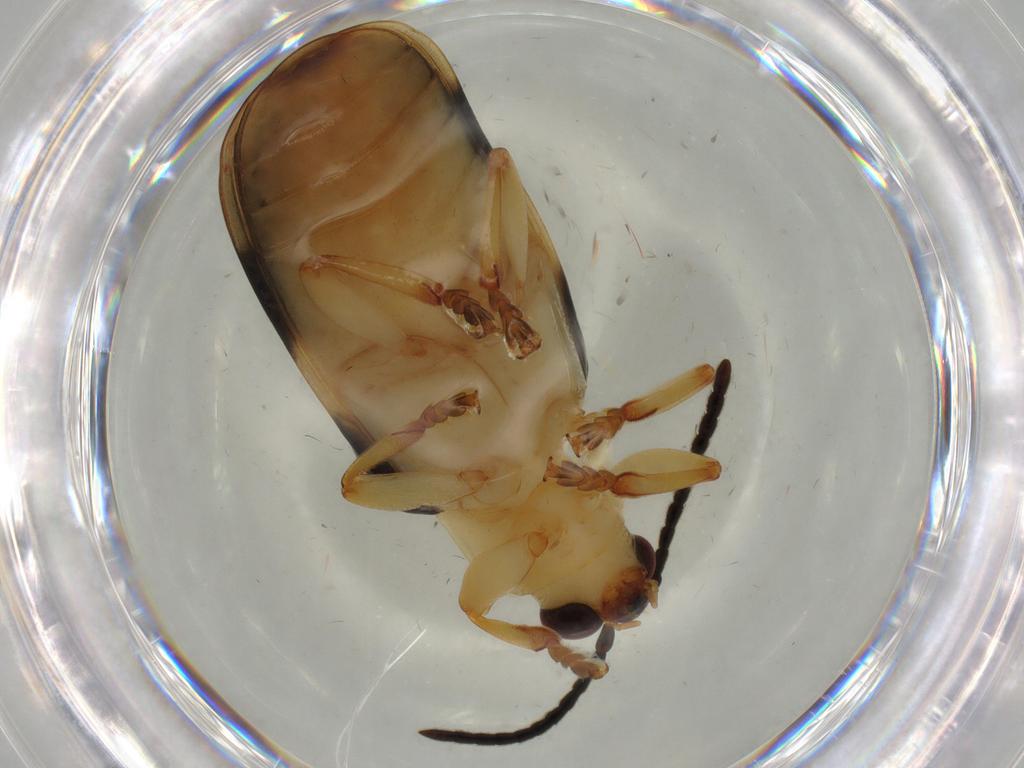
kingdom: Animalia
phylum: Arthropoda
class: Insecta
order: Coleoptera
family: Chrysomelidae
